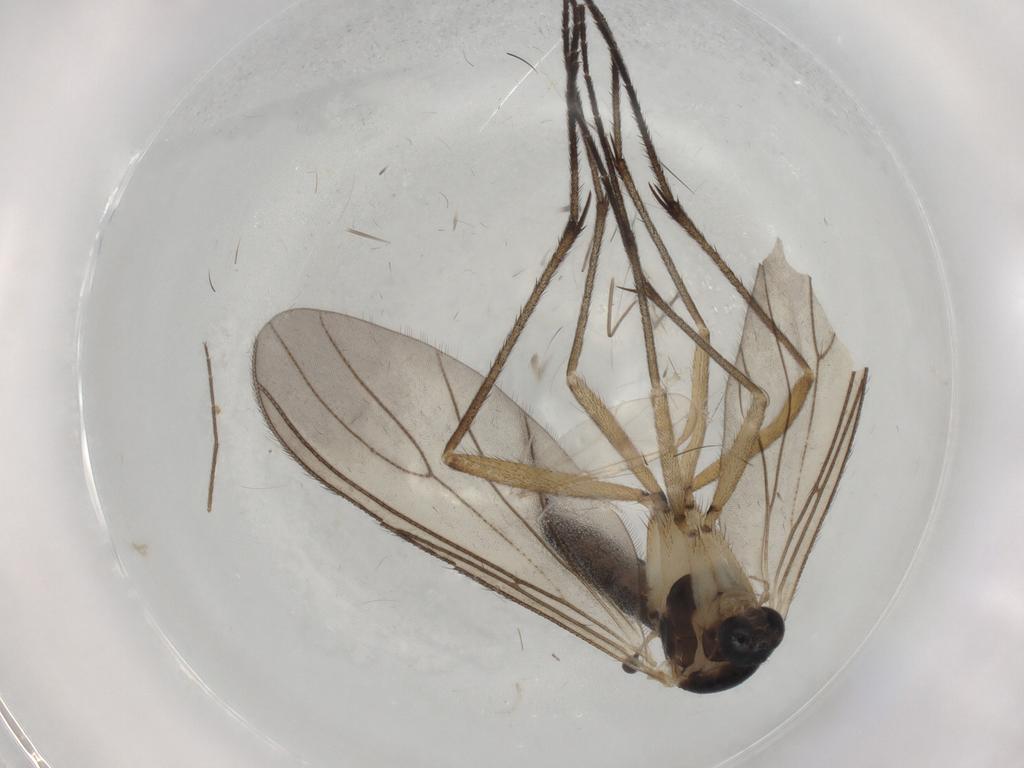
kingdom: Animalia
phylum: Arthropoda
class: Insecta
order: Diptera
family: Sciaridae
